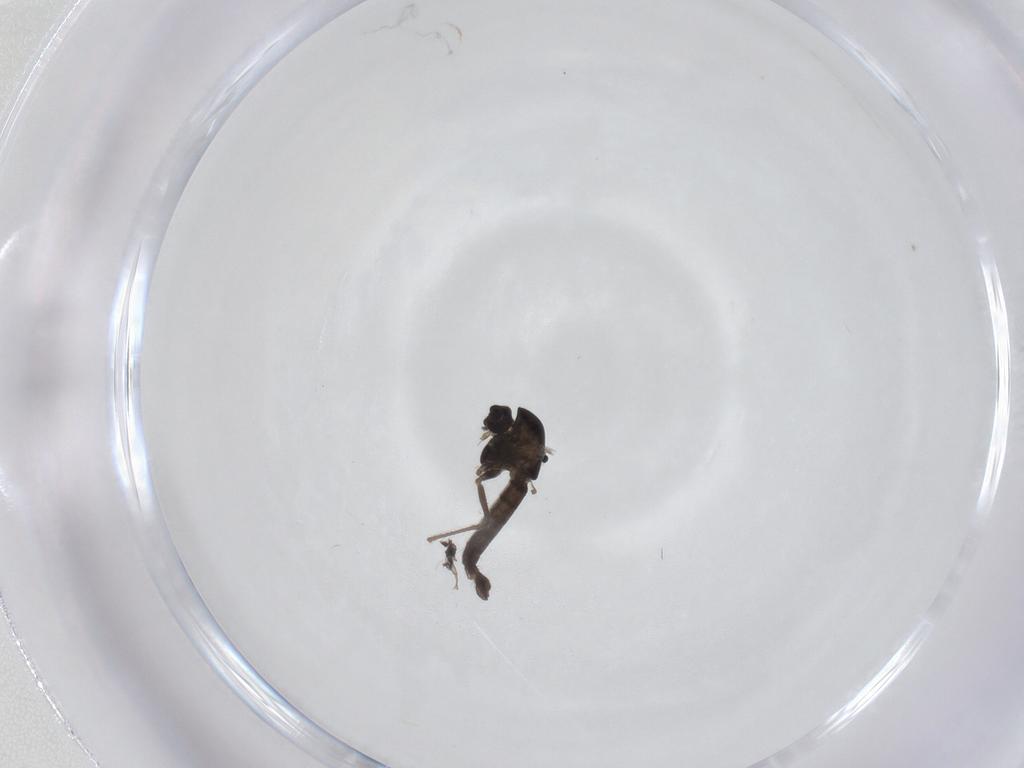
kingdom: Animalia
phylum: Arthropoda
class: Insecta
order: Diptera
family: Chironomidae
